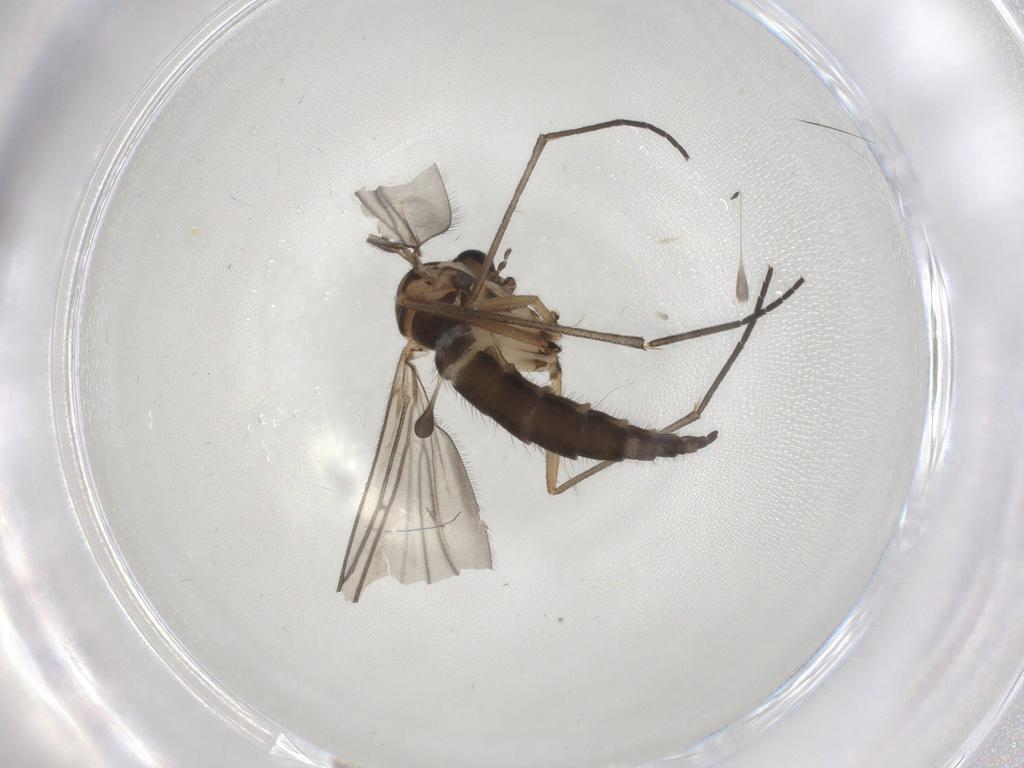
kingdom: Animalia
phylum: Arthropoda
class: Insecta
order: Diptera
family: Sciaridae
